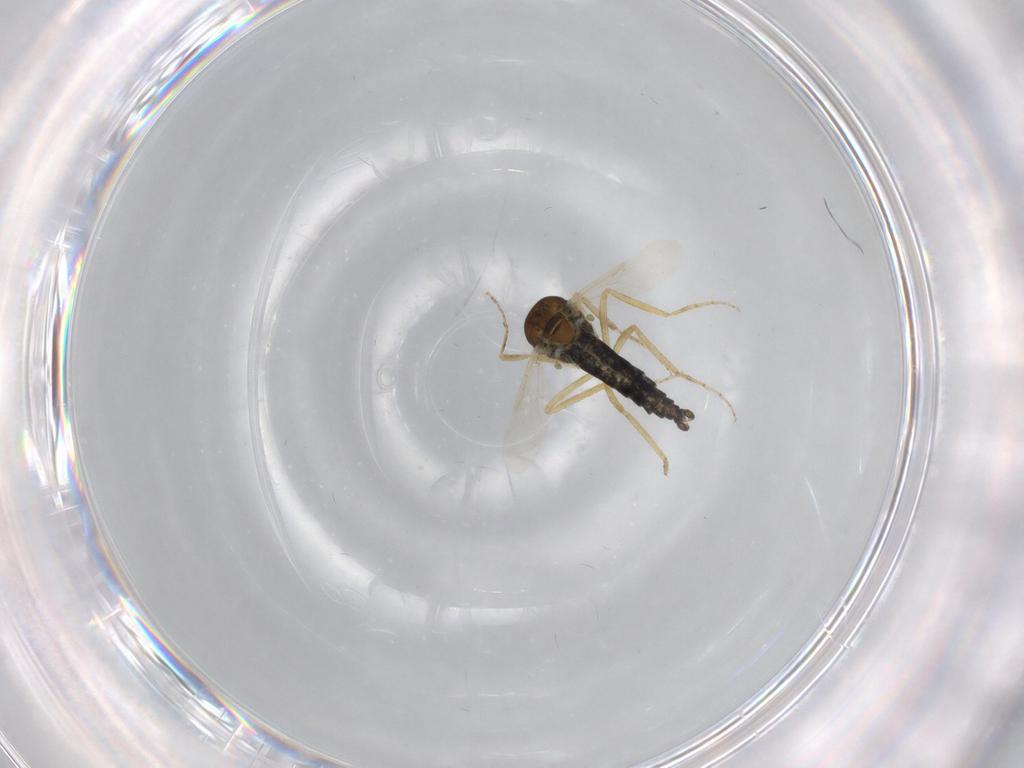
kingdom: Animalia
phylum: Arthropoda
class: Insecta
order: Diptera
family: Ceratopogonidae
